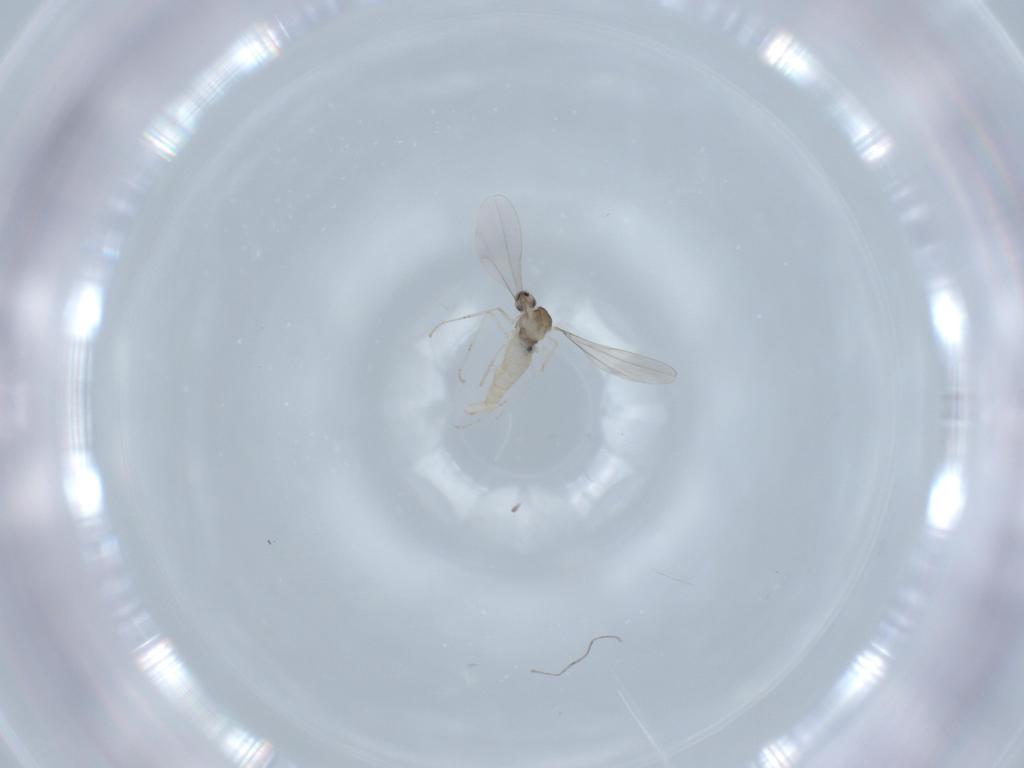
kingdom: Animalia
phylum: Arthropoda
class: Insecta
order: Diptera
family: Cecidomyiidae
